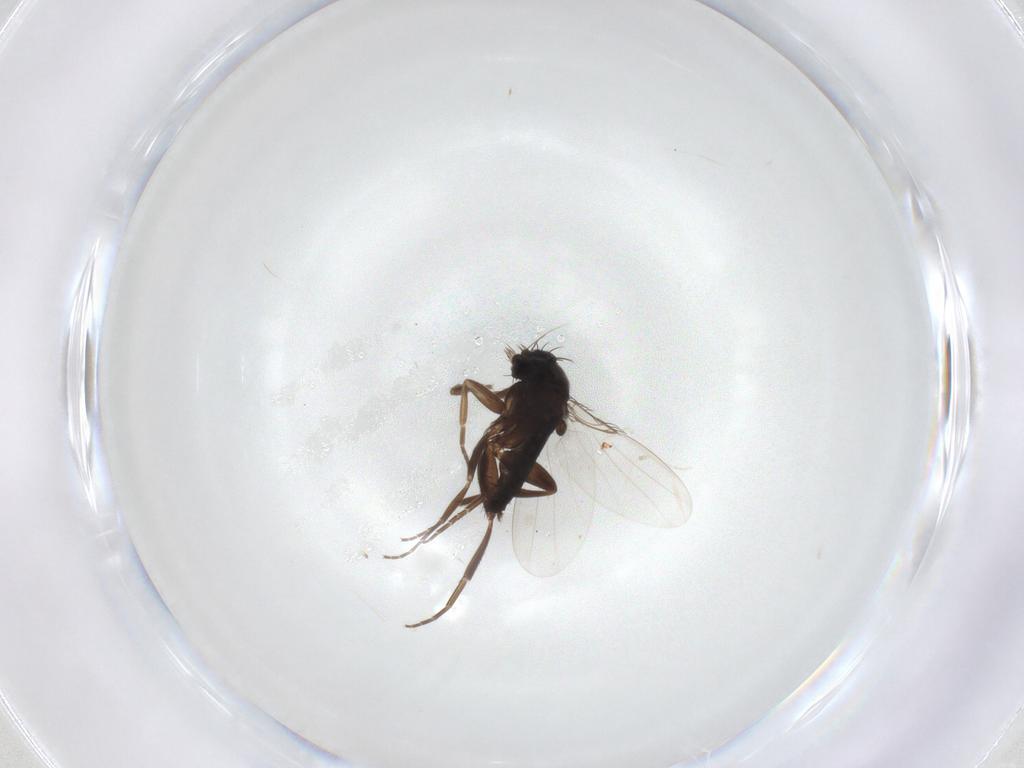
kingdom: Animalia
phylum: Arthropoda
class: Insecta
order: Diptera
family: Phoridae
